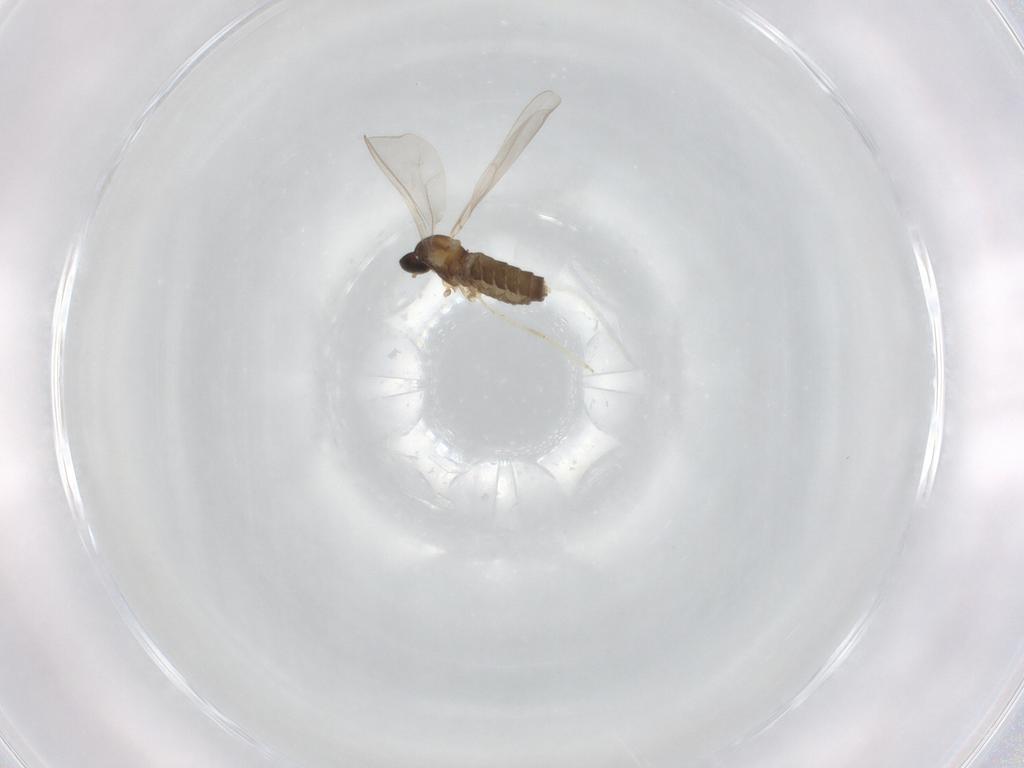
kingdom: Animalia
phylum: Arthropoda
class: Insecta
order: Diptera
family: Cecidomyiidae
